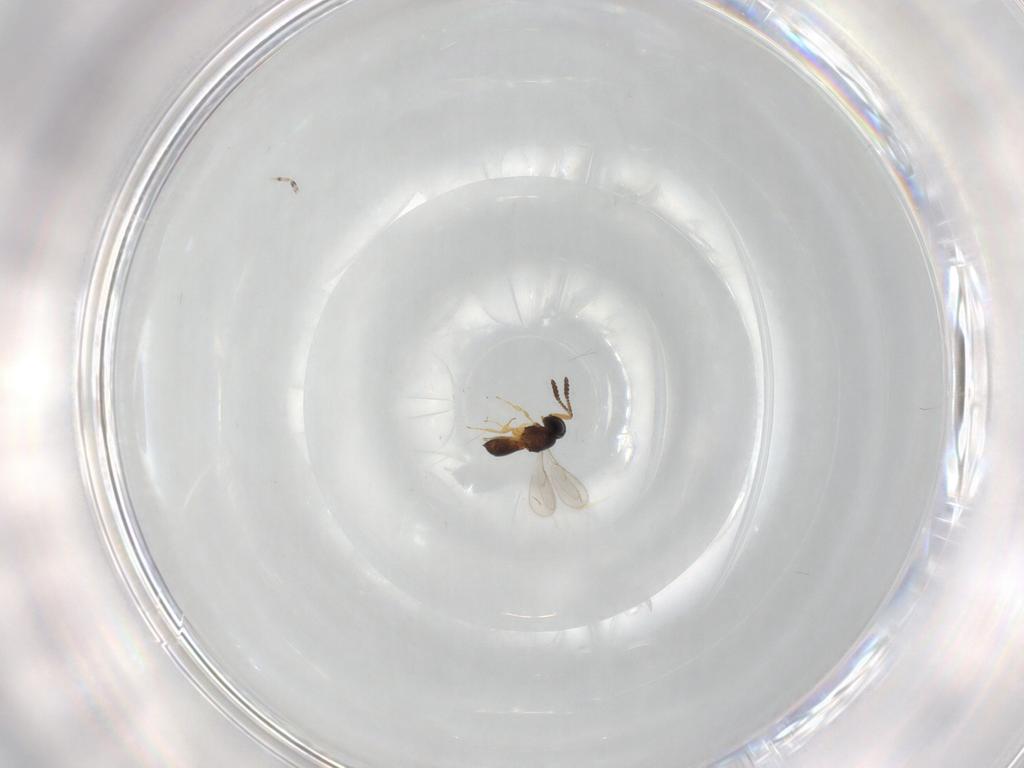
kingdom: Animalia
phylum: Arthropoda
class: Insecta
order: Hymenoptera
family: Scelionidae
